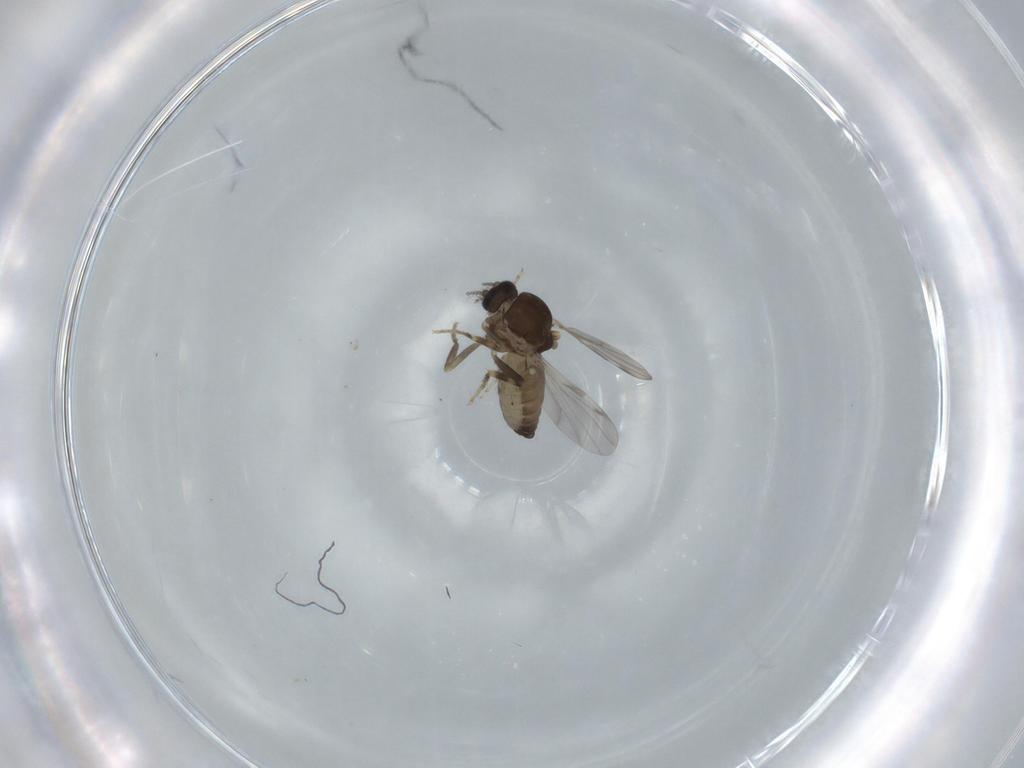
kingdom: Animalia
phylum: Arthropoda
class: Insecta
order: Diptera
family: Ceratopogonidae
